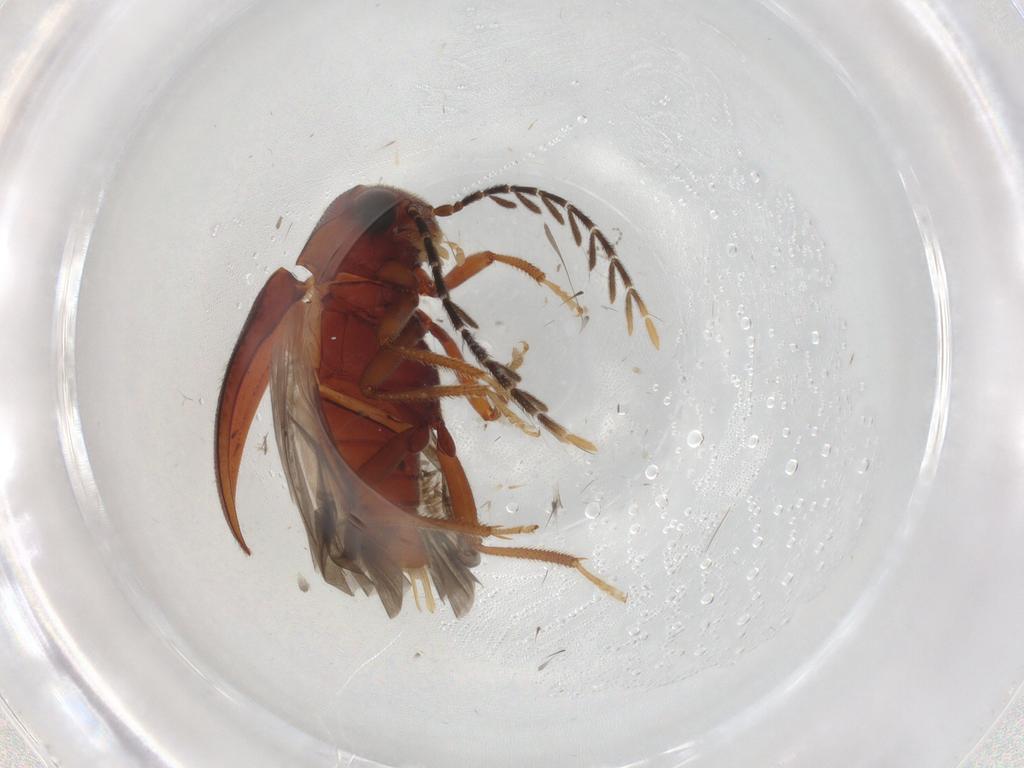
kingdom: Animalia
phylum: Arthropoda
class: Insecta
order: Coleoptera
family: Ptilodactylidae
